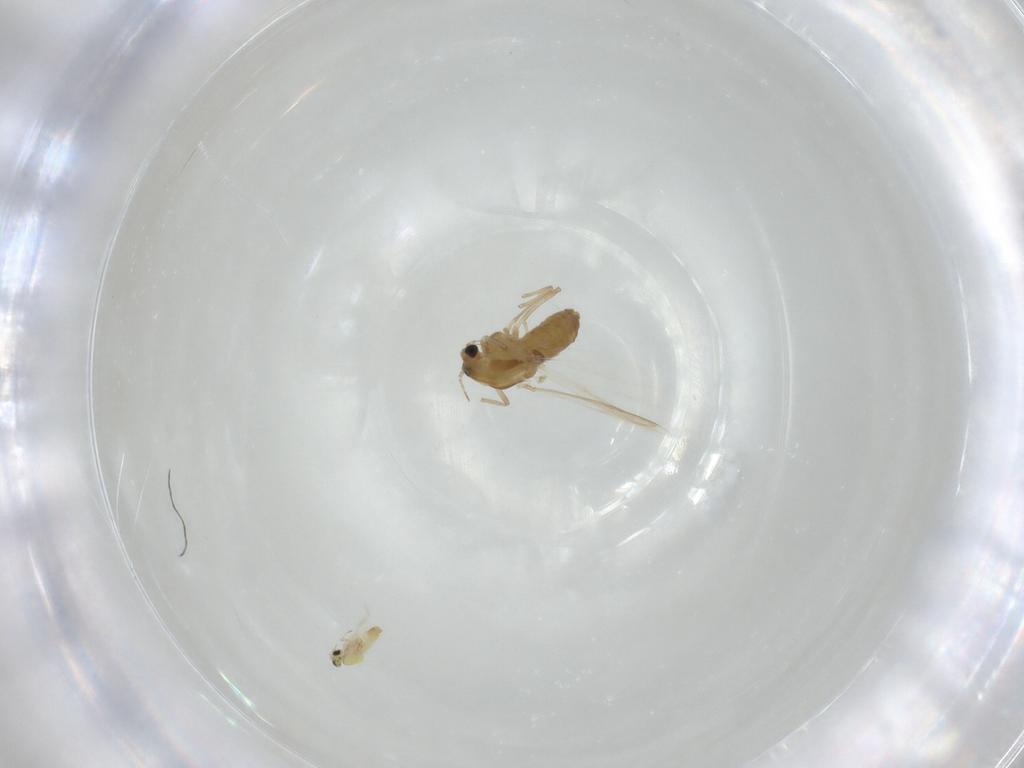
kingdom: Animalia
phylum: Arthropoda
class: Insecta
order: Diptera
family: Chironomidae
